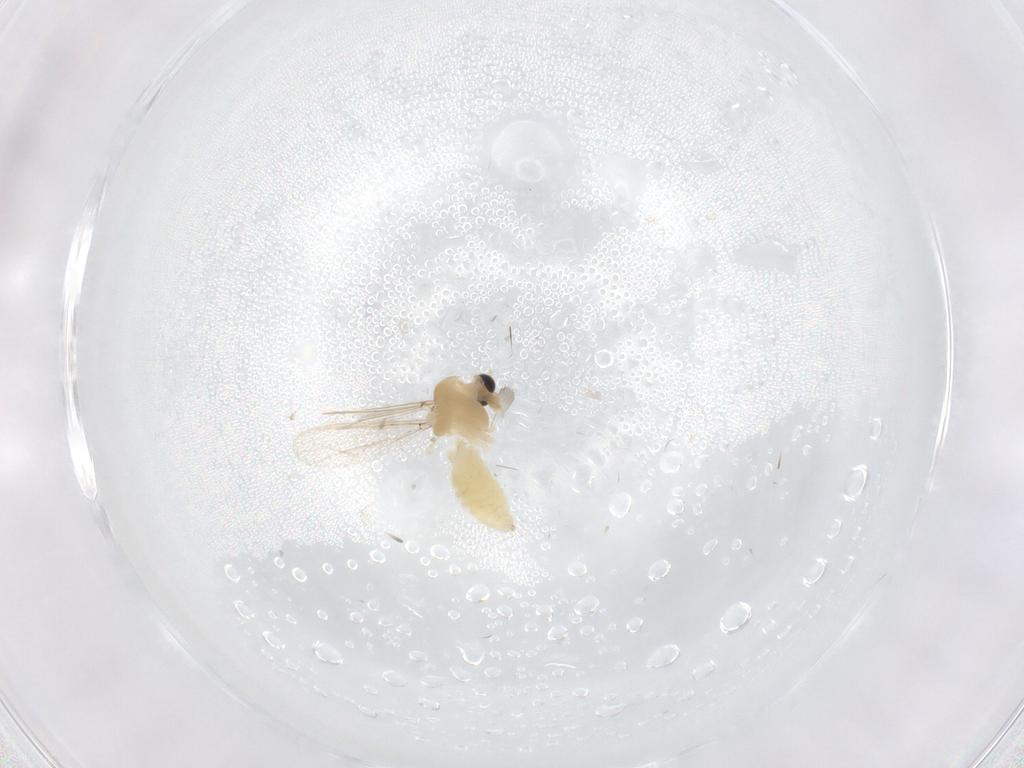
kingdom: Animalia
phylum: Arthropoda
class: Insecta
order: Diptera
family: Chironomidae
